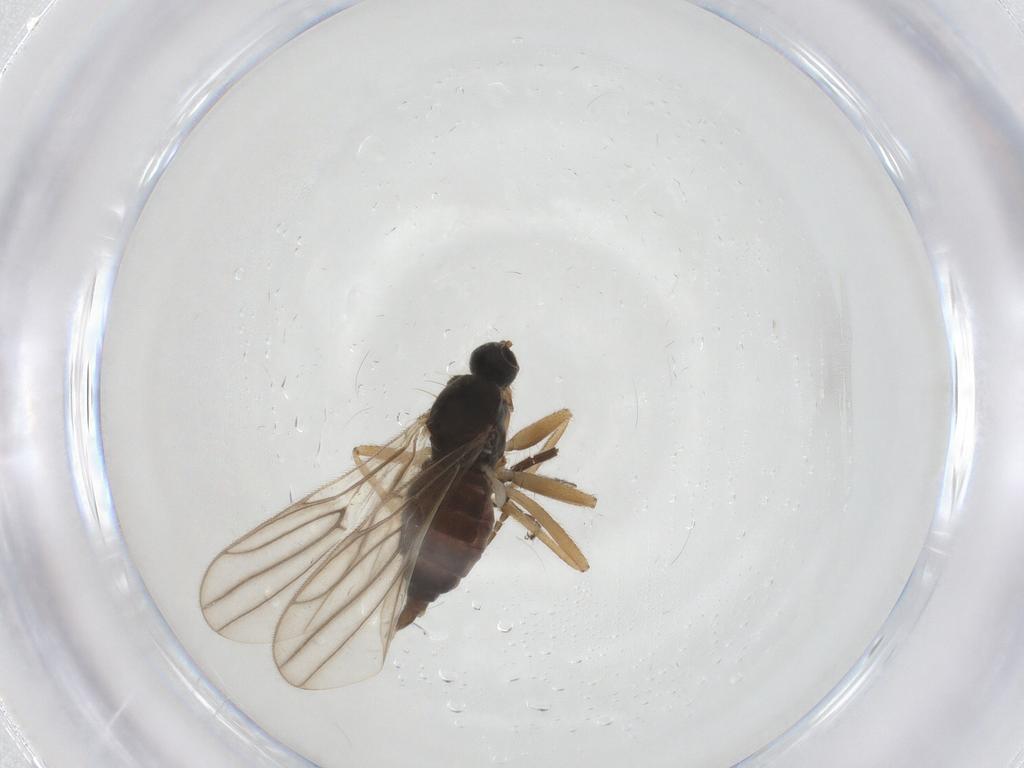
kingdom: Animalia
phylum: Arthropoda
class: Insecta
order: Diptera
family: Hybotidae
